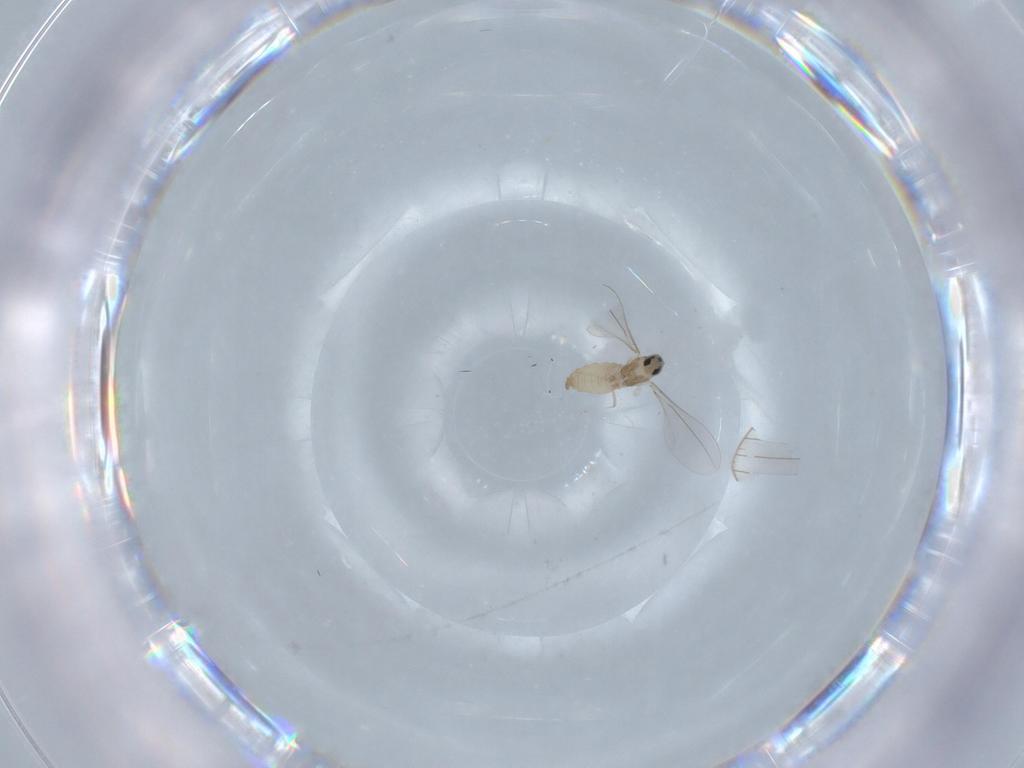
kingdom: Animalia
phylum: Arthropoda
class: Insecta
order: Diptera
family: Cecidomyiidae
